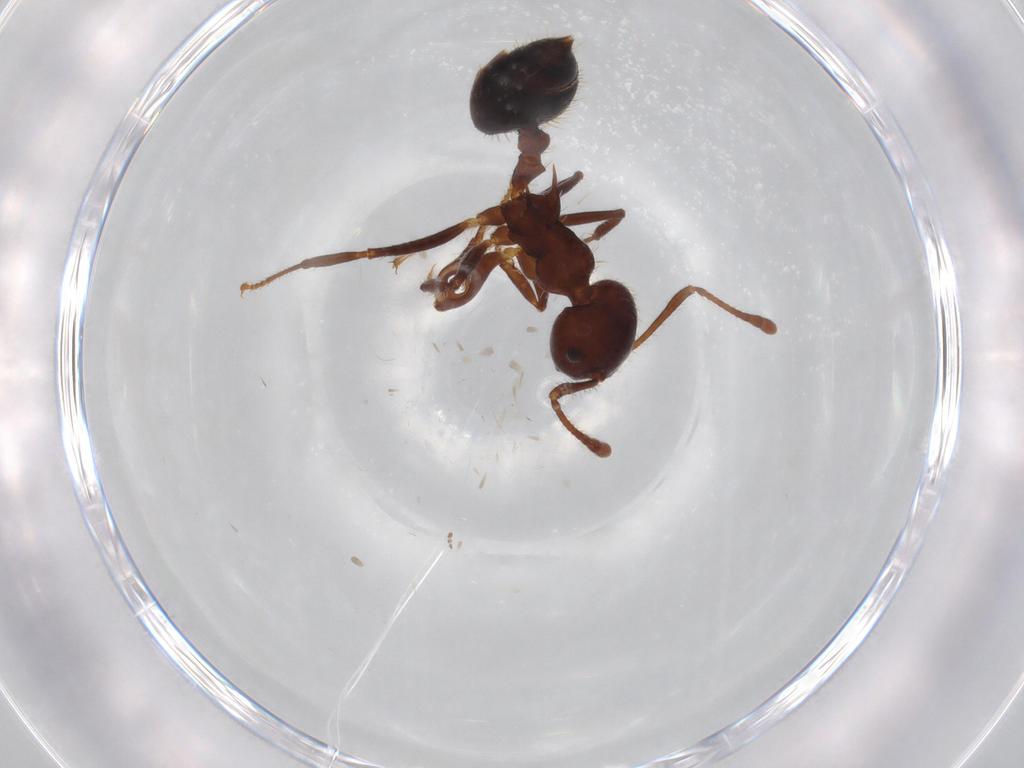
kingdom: Animalia
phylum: Arthropoda
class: Insecta
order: Hymenoptera
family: Formicidae
